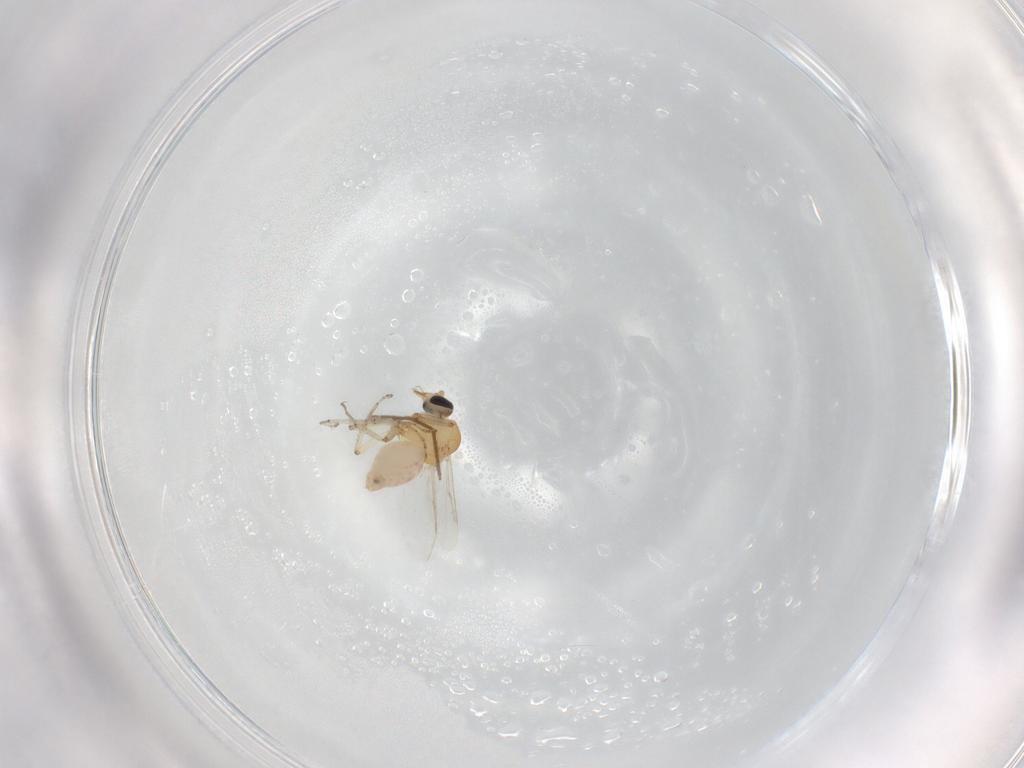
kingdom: Animalia
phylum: Arthropoda
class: Insecta
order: Diptera
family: Ceratopogonidae
